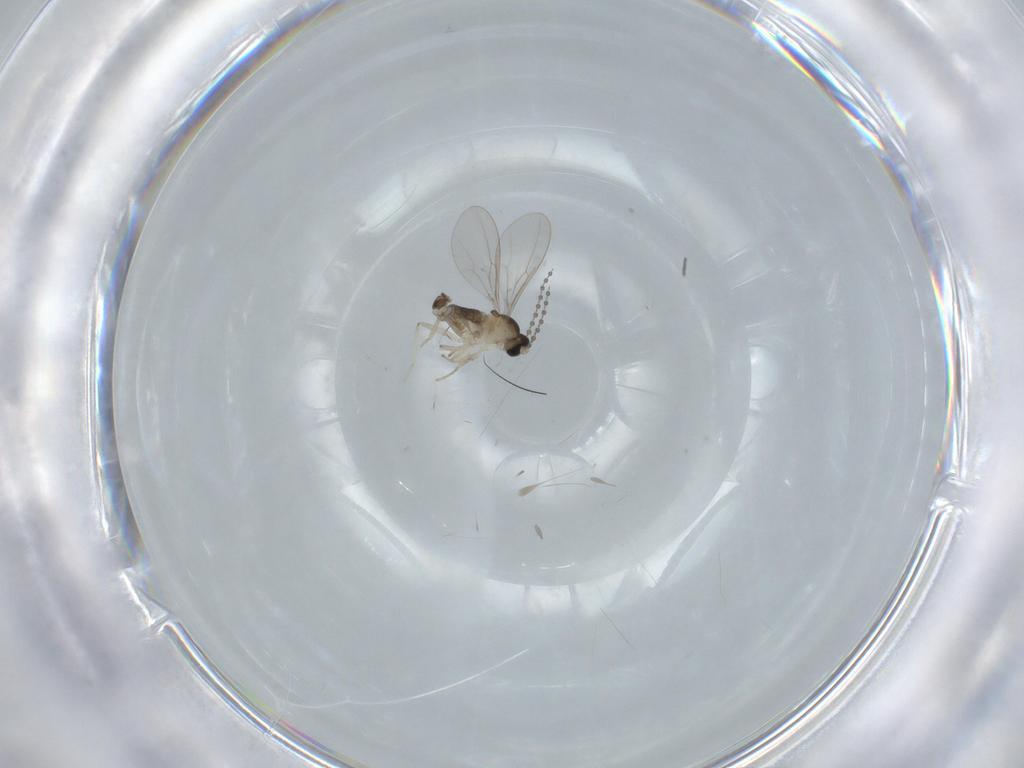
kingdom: Animalia
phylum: Arthropoda
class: Insecta
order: Diptera
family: Cecidomyiidae
